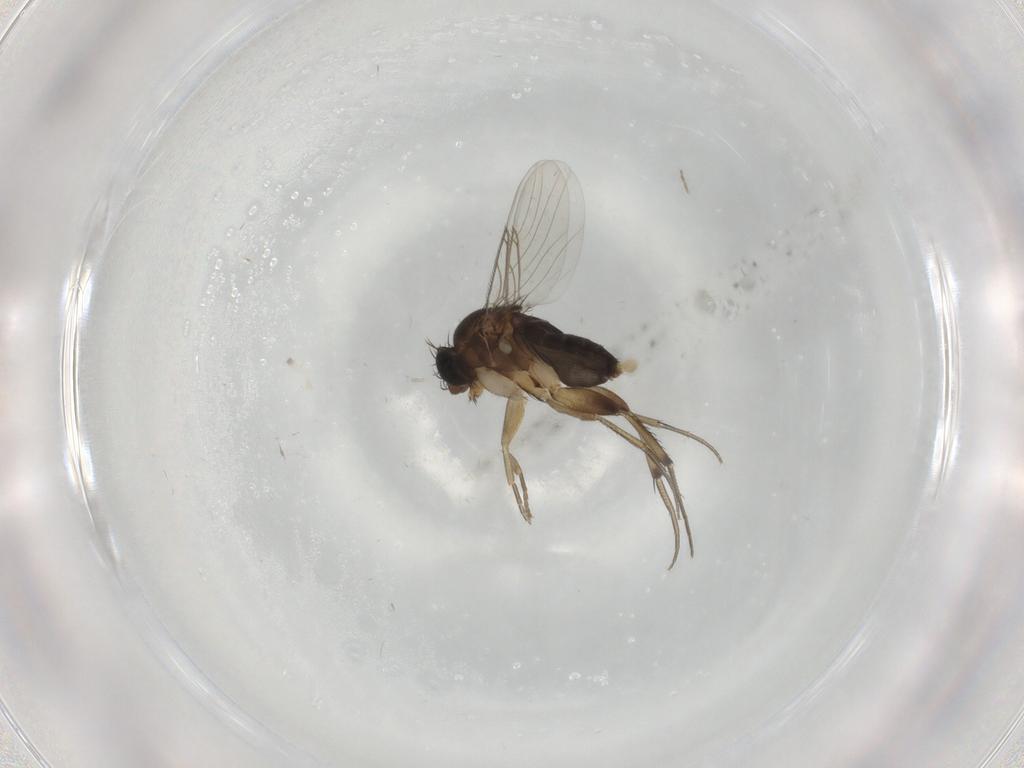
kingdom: Animalia
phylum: Arthropoda
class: Insecta
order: Diptera
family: Phoridae
